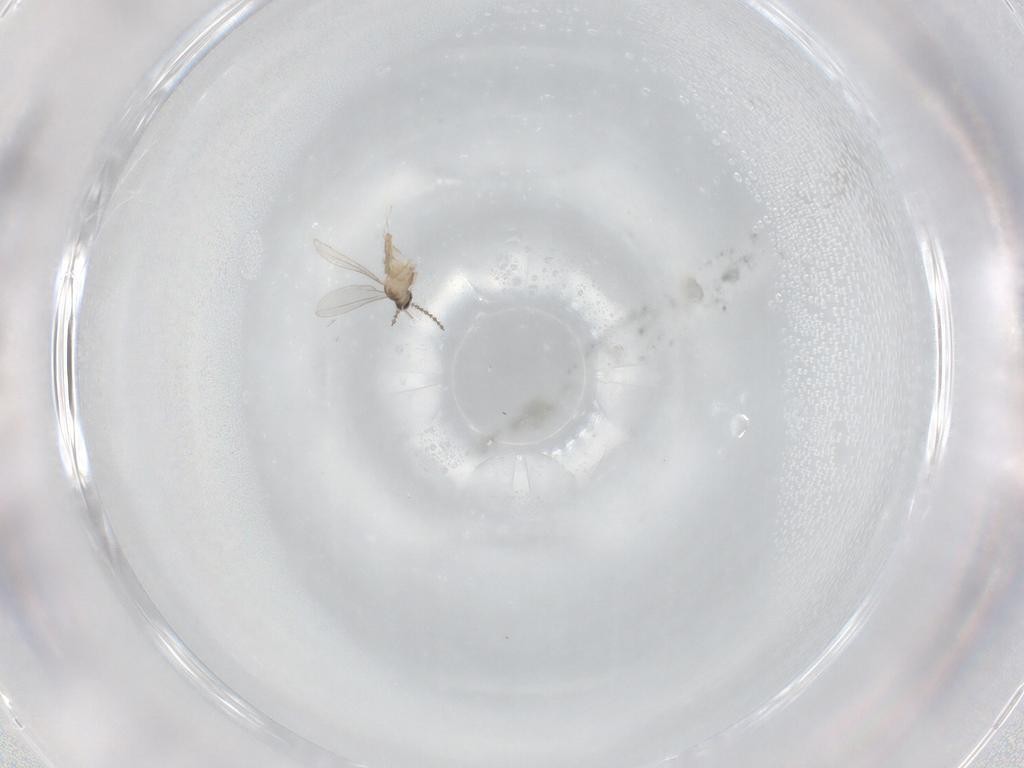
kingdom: Animalia
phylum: Arthropoda
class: Insecta
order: Diptera
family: Cecidomyiidae
